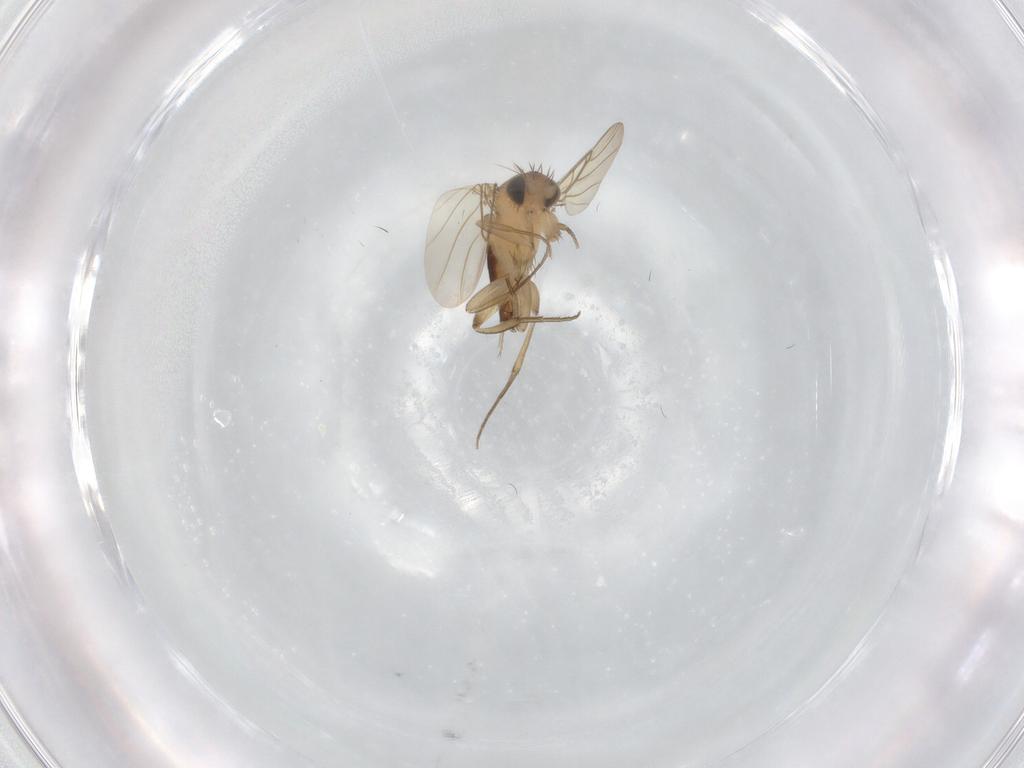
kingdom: Animalia
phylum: Arthropoda
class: Insecta
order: Diptera
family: Phoridae
